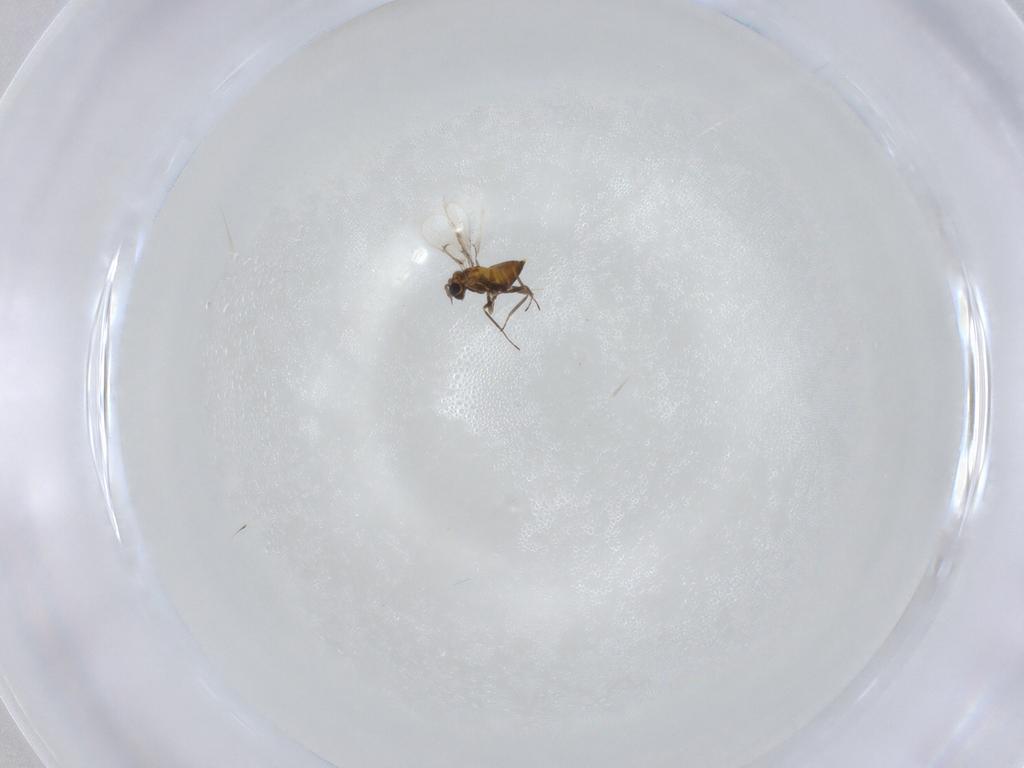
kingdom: Animalia
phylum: Arthropoda
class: Insecta
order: Hymenoptera
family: Trichogrammatidae
